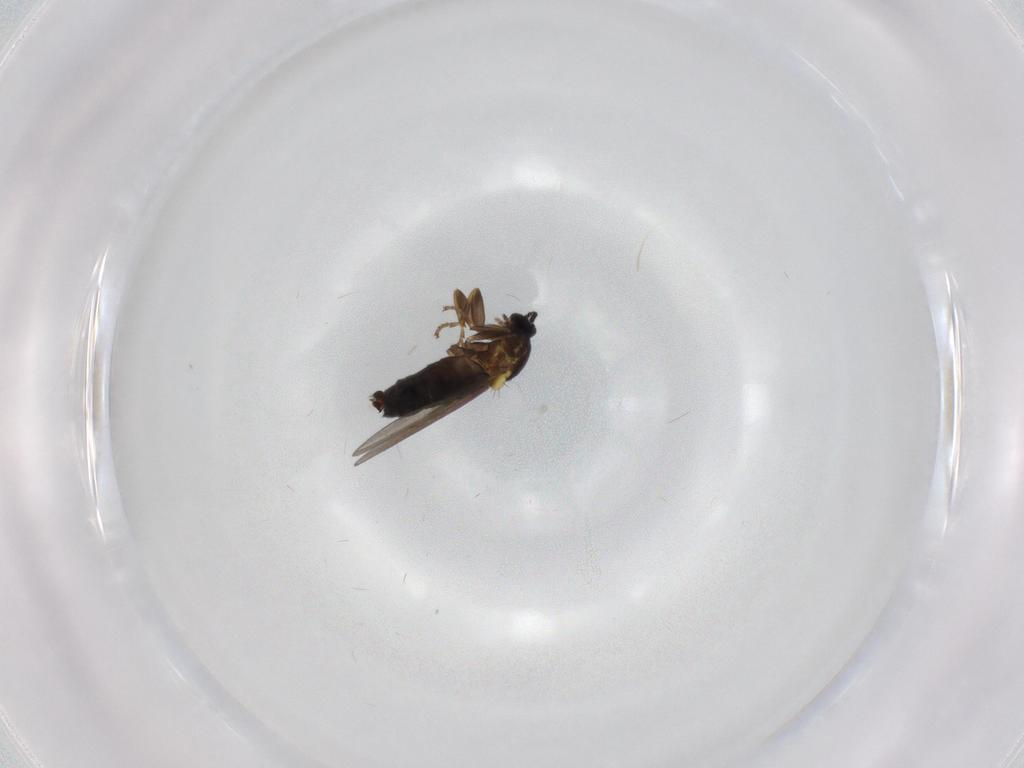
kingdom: Animalia
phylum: Arthropoda
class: Insecta
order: Diptera
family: Scatopsidae
